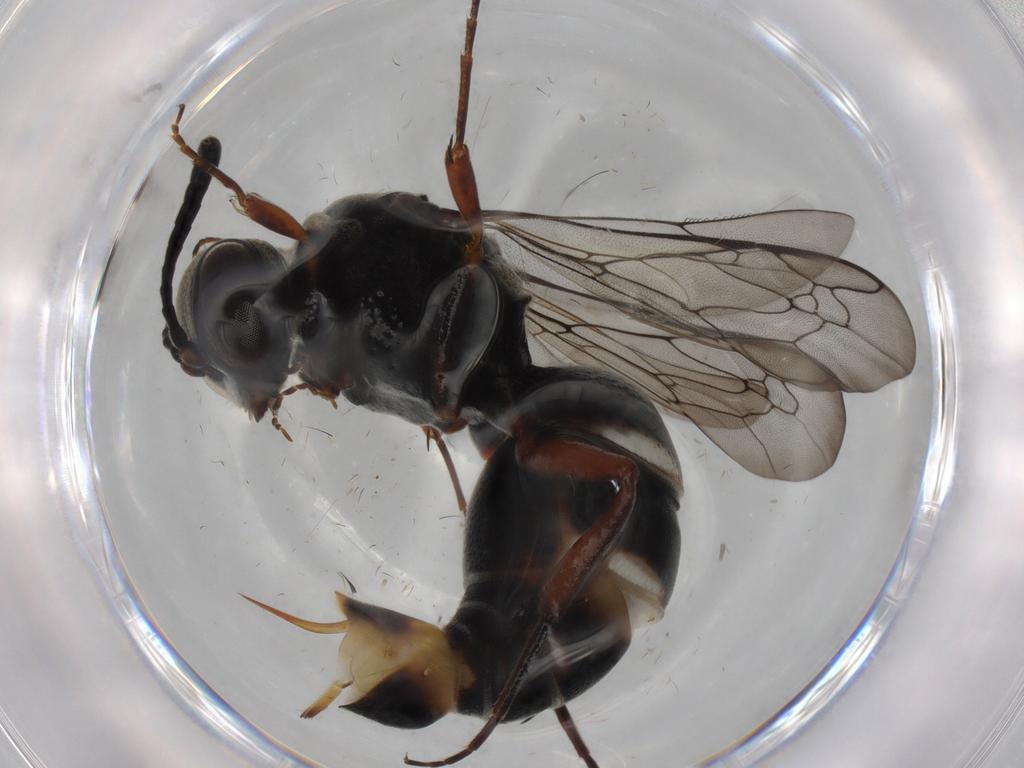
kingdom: Animalia
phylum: Arthropoda
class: Insecta
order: Hymenoptera
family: Bembicidae
